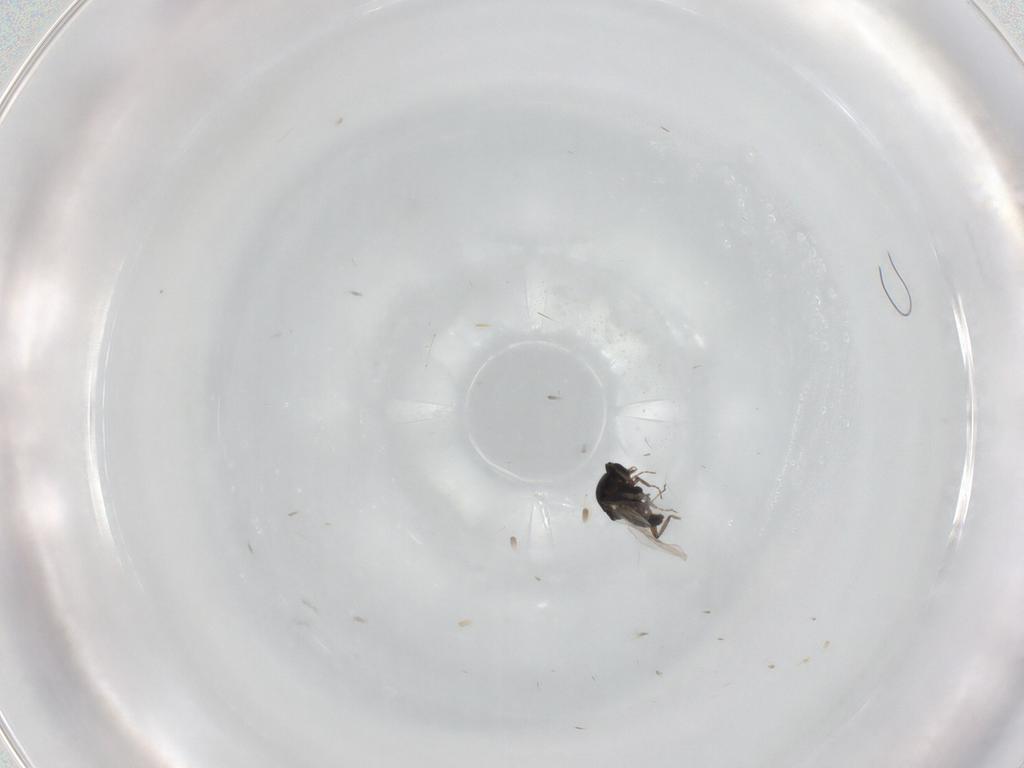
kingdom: Animalia
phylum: Arthropoda
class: Insecta
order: Diptera
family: Ceratopogonidae
